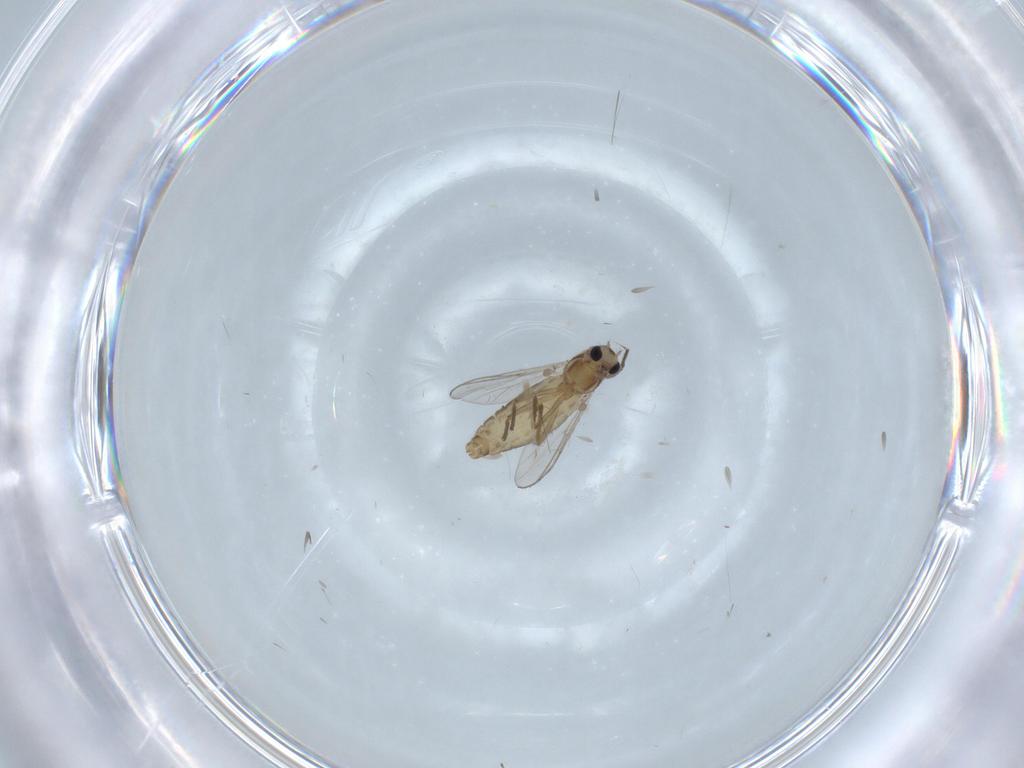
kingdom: Animalia
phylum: Arthropoda
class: Insecta
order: Diptera
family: Chironomidae
